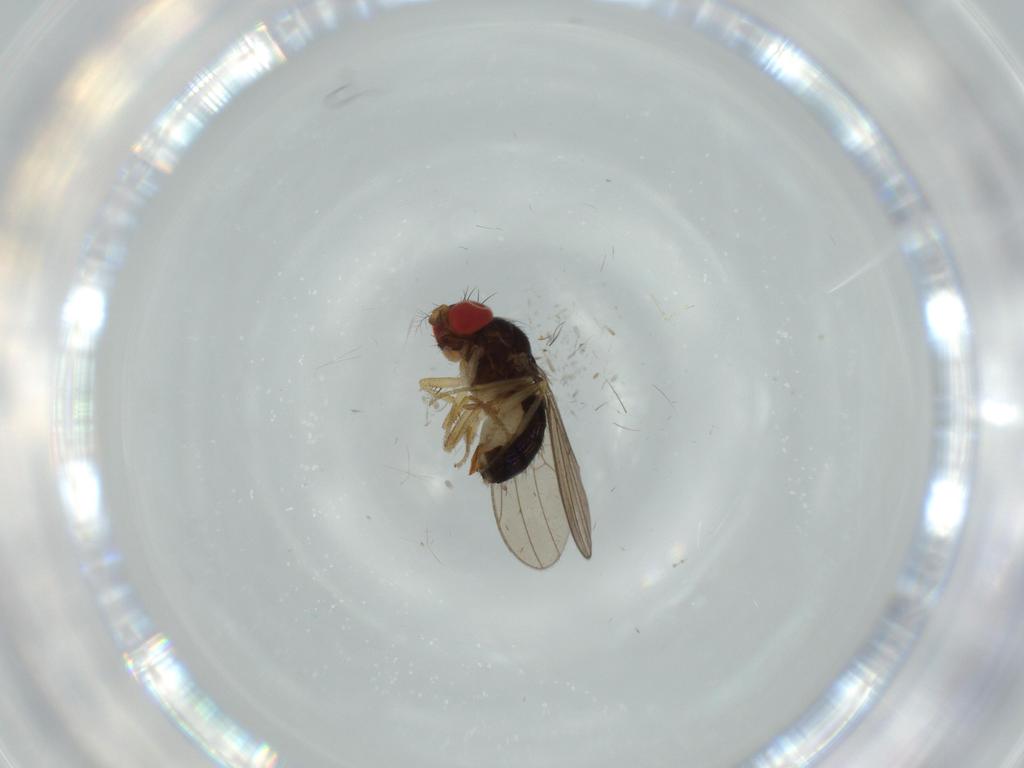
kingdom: Animalia
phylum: Arthropoda
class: Insecta
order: Diptera
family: Drosophilidae
